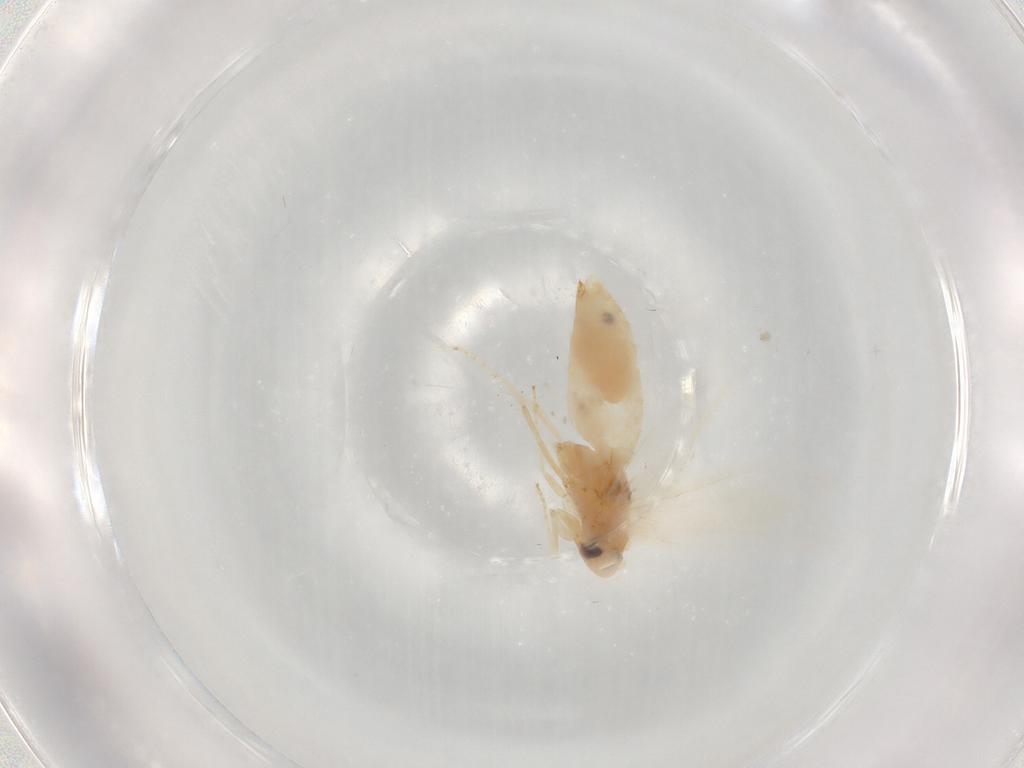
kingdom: Animalia
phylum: Arthropoda
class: Insecta
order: Lepidoptera
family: Gracillariidae
